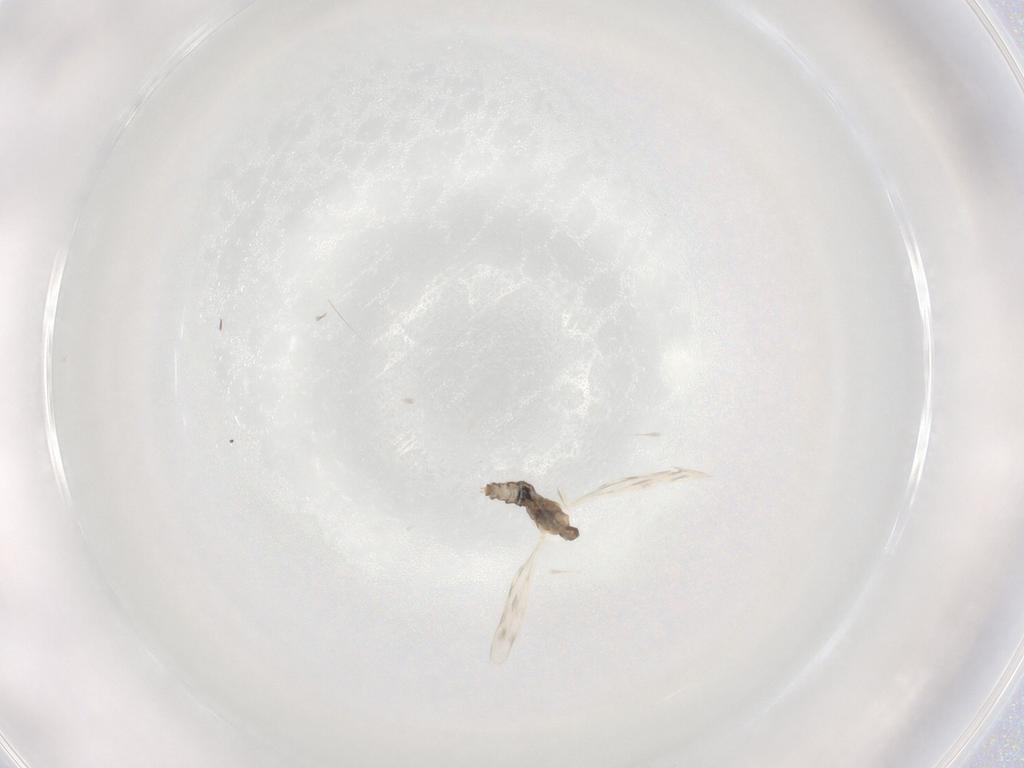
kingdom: Animalia
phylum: Arthropoda
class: Insecta
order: Diptera
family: Cecidomyiidae
